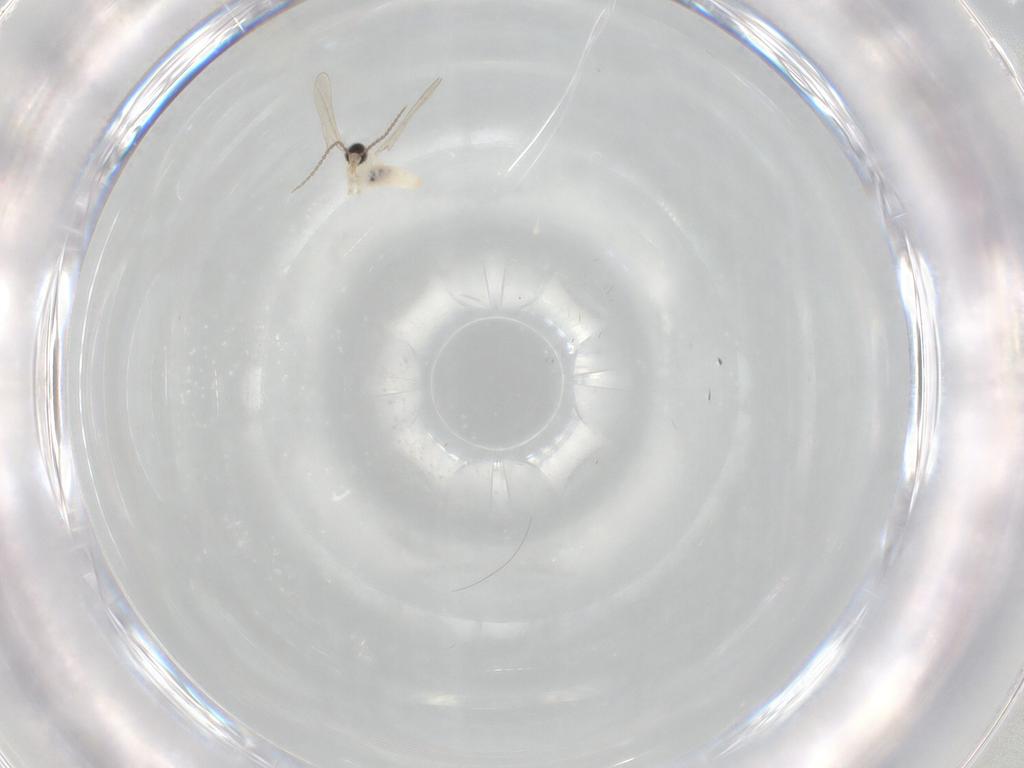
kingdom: Animalia
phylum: Arthropoda
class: Insecta
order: Diptera
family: Cecidomyiidae
